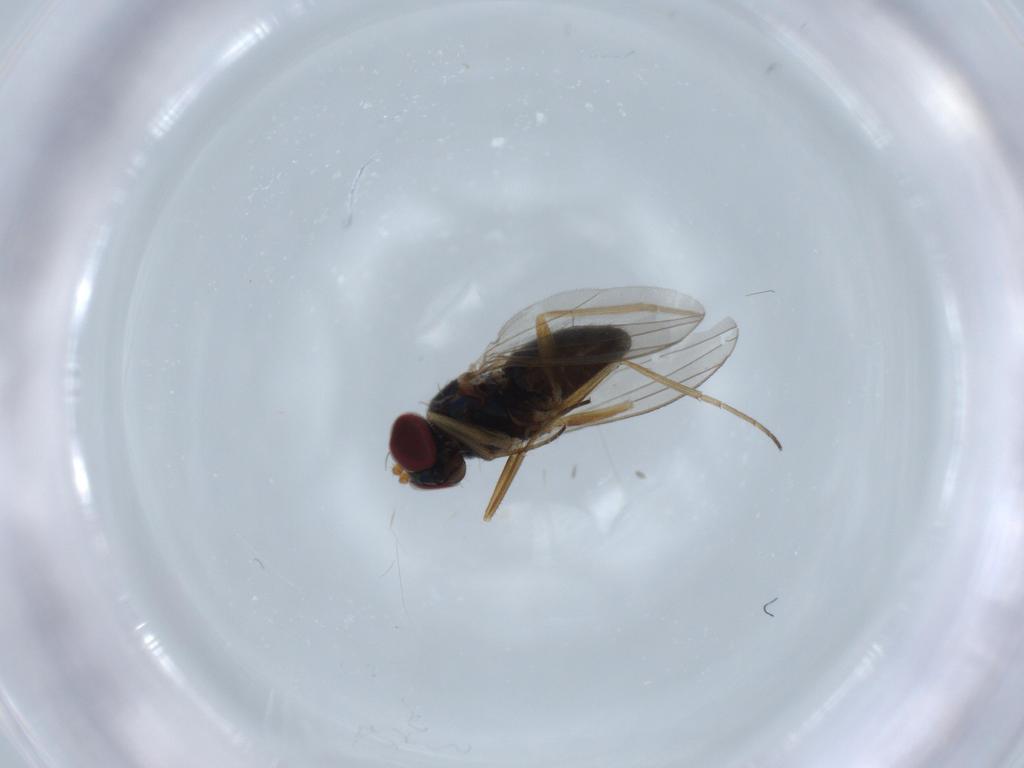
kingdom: Animalia
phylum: Arthropoda
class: Insecta
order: Diptera
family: Dolichopodidae
